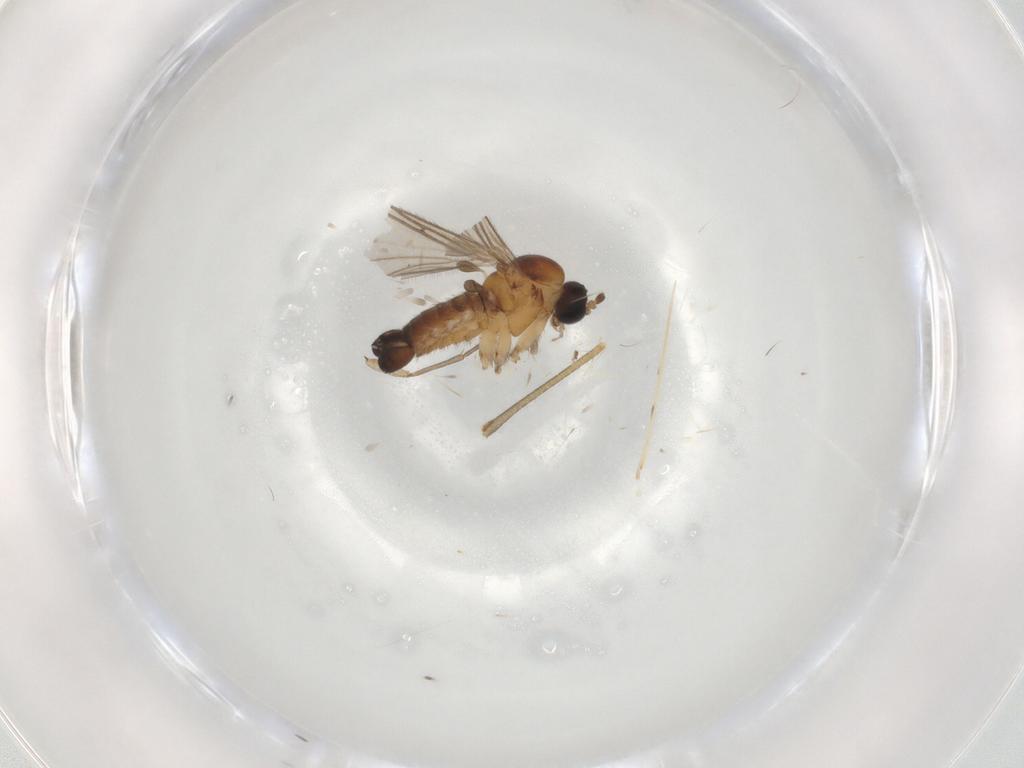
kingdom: Animalia
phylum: Arthropoda
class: Insecta
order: Diptera
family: Sciaridae
